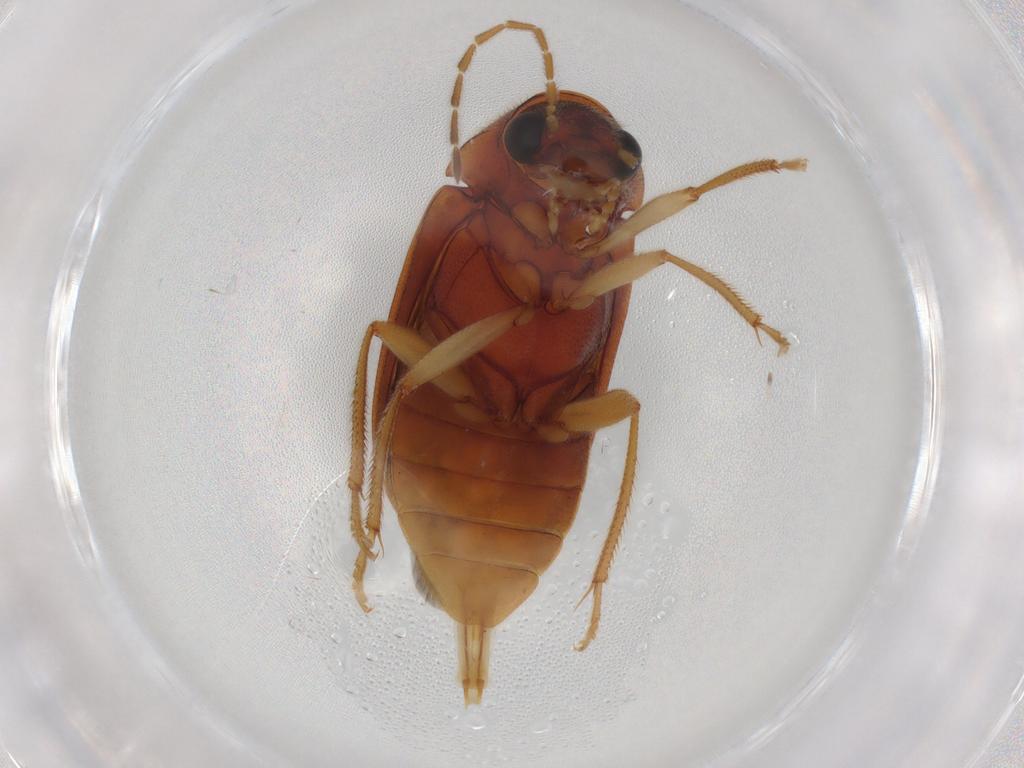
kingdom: Animalia
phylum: Arthropoda
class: Insecta
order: Coleoptera
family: Ptilodactylidae
